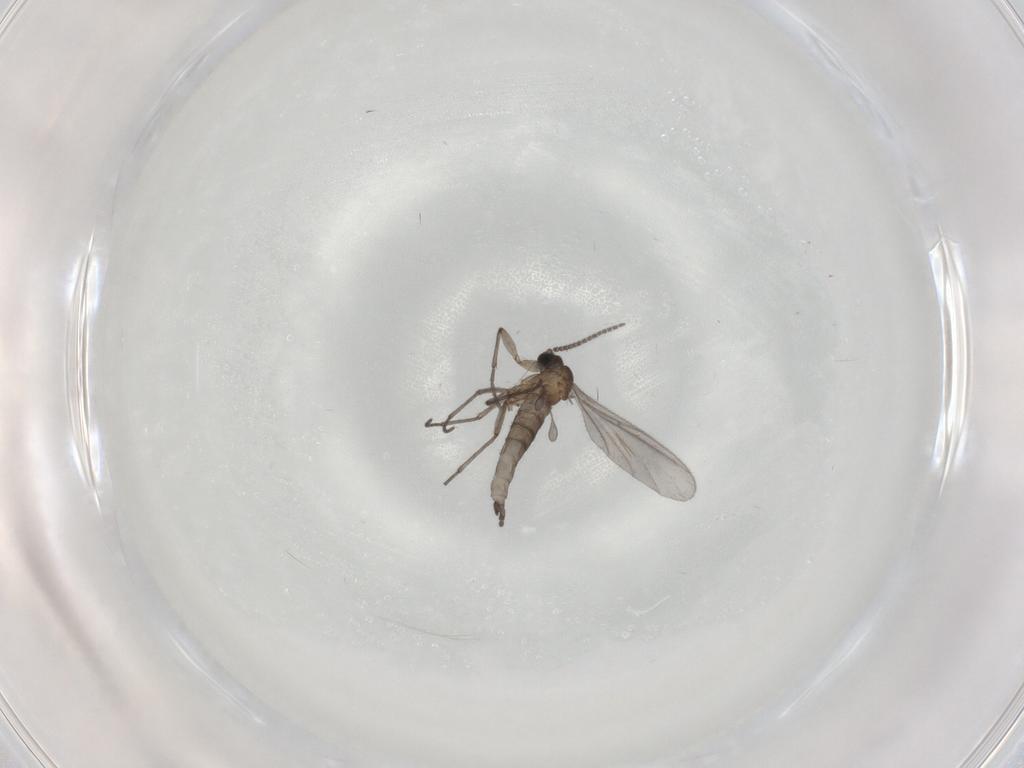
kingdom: Animalia
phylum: Arthropoda
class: Insecta
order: Diptera
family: Sciaridae
